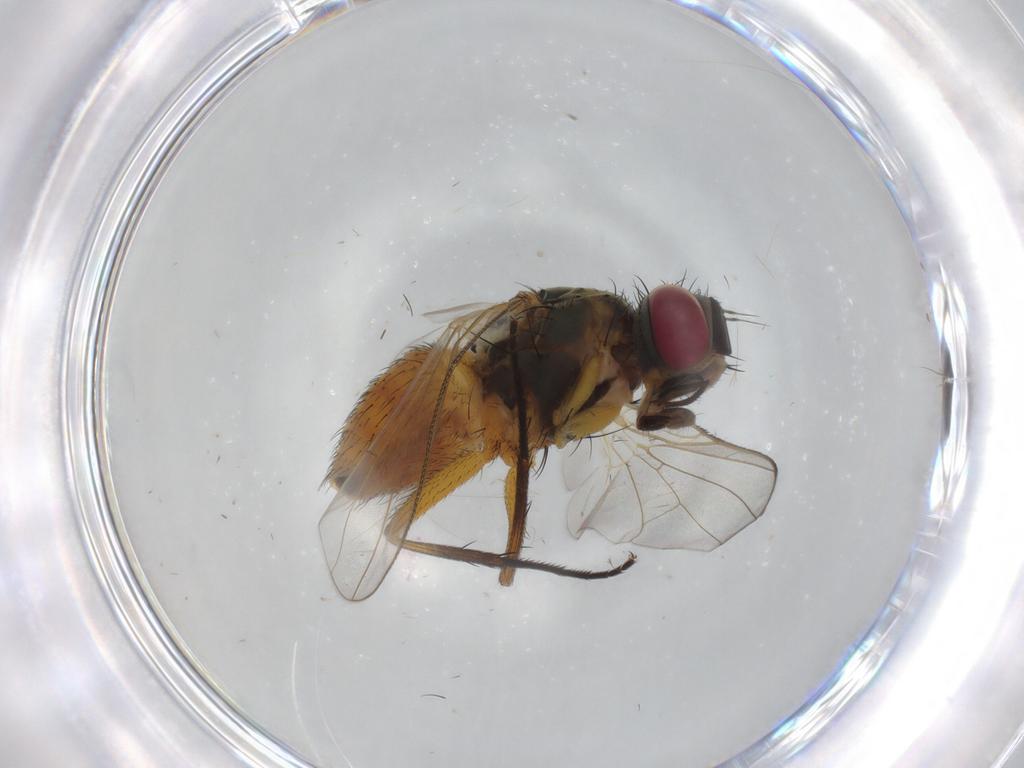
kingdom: Animalia
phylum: Arthropoda
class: Insecta
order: Diptera
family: Muscidae
